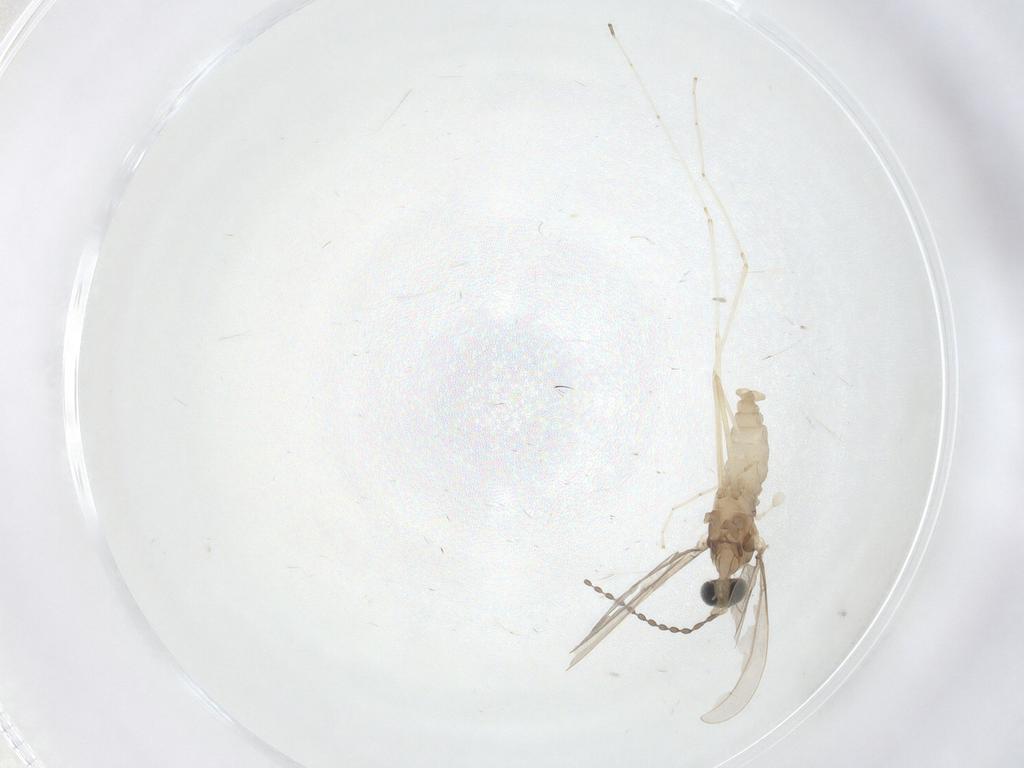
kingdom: Animalia
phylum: Arthropoda
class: Insecta
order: Diptera
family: Cecidomyiidae
